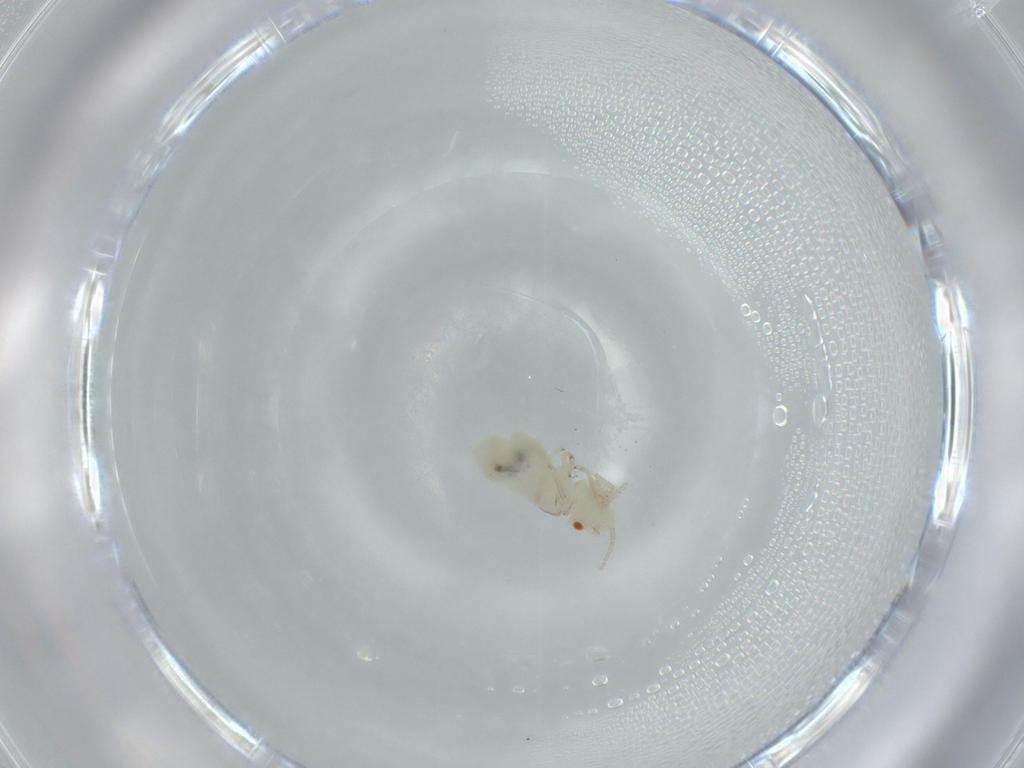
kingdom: Animalia
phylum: Arthropoda
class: Insecta
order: Psocodea
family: Caeciliusidae
